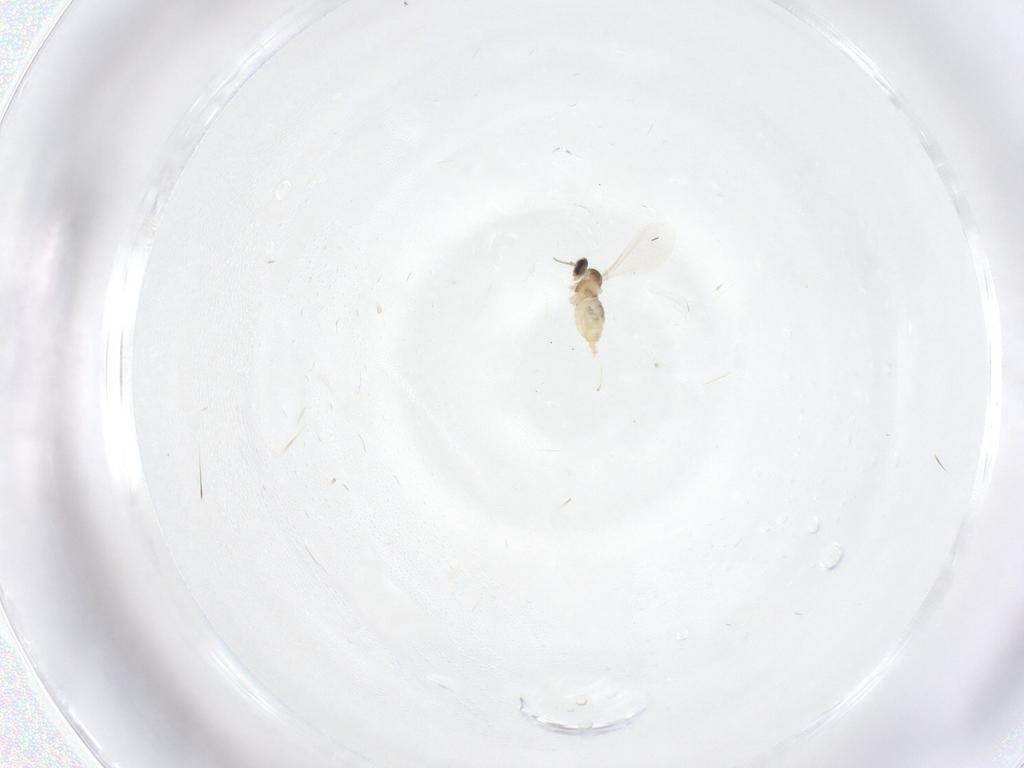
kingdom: Animalia
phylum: Arthropoda
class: Insecta
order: Diptera
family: Cecidomyiidae
